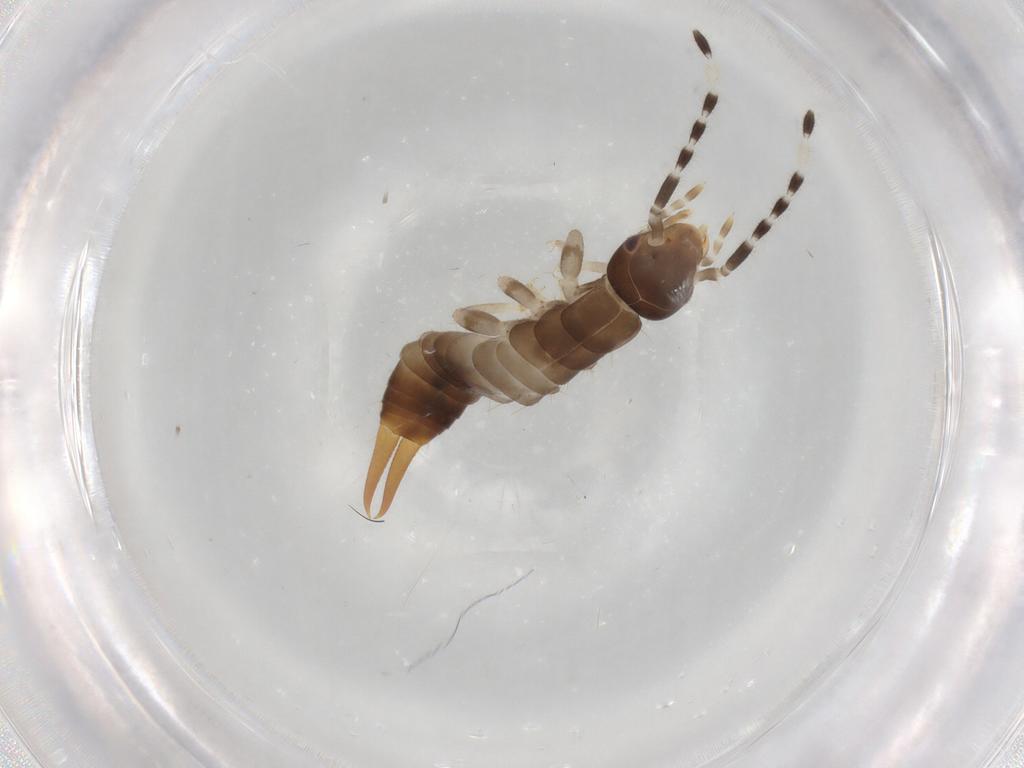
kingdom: Animalia
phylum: Arthropoda
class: Insecta
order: Dermaptera
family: Anisolabididae
